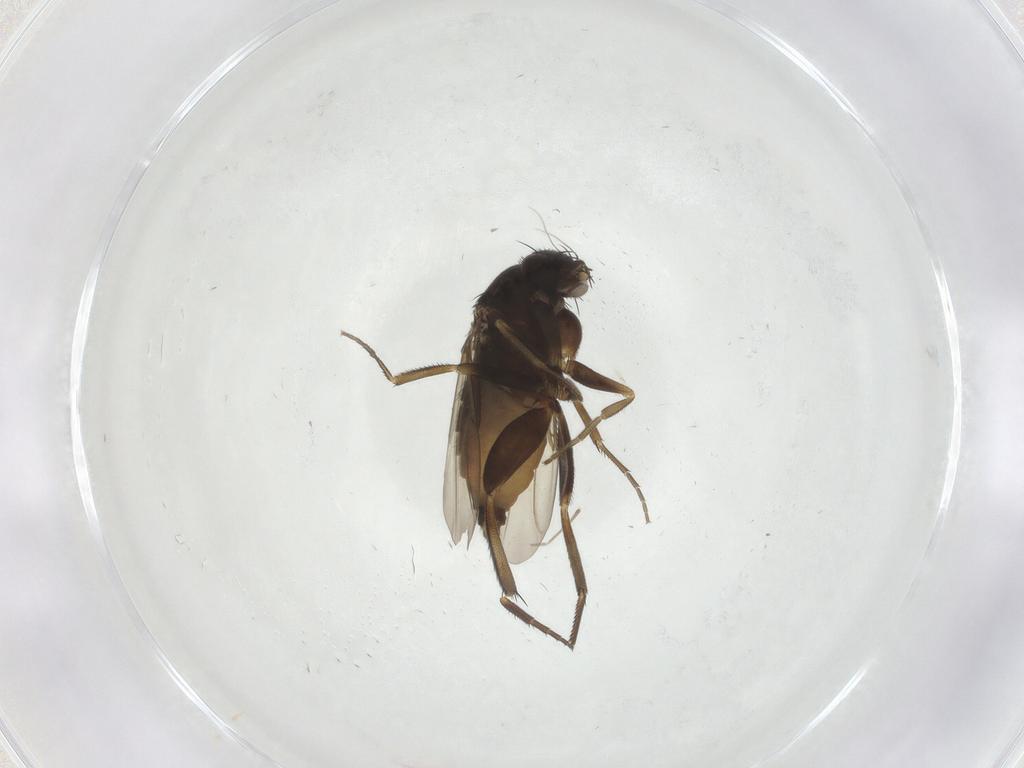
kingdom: Animalia
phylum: Arthropoda
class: Insecta
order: Diptera
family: Phoridae
